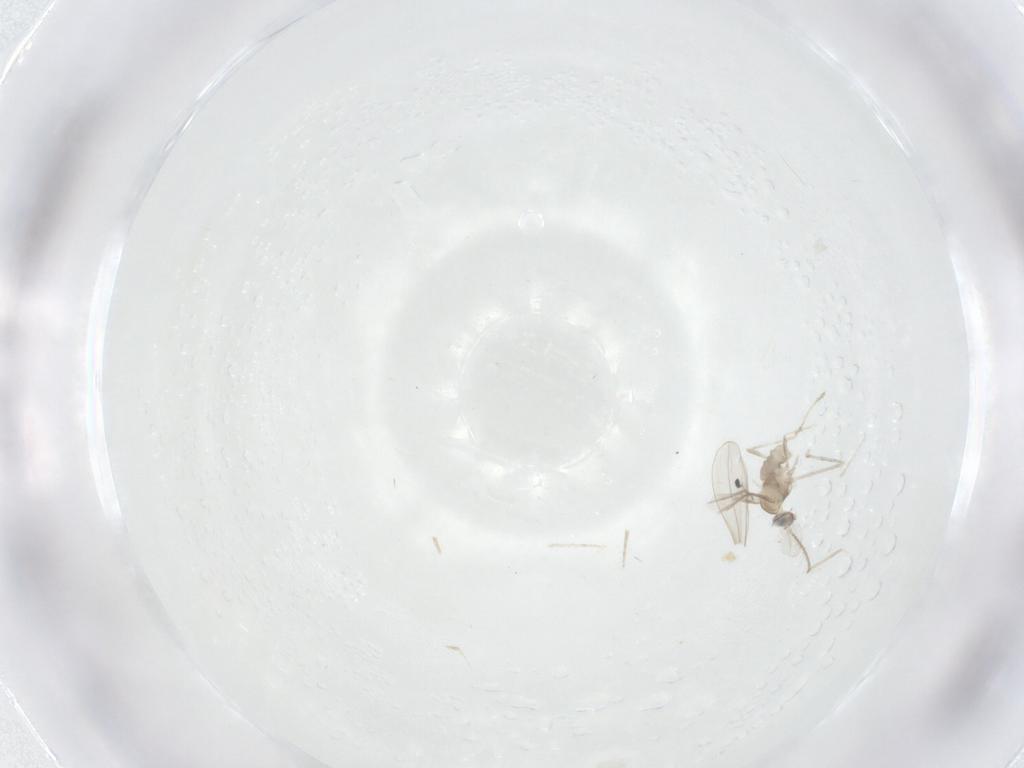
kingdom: Animalia
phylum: Arthropoda
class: Insecta
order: Diptera
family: Cecidomyiidae
